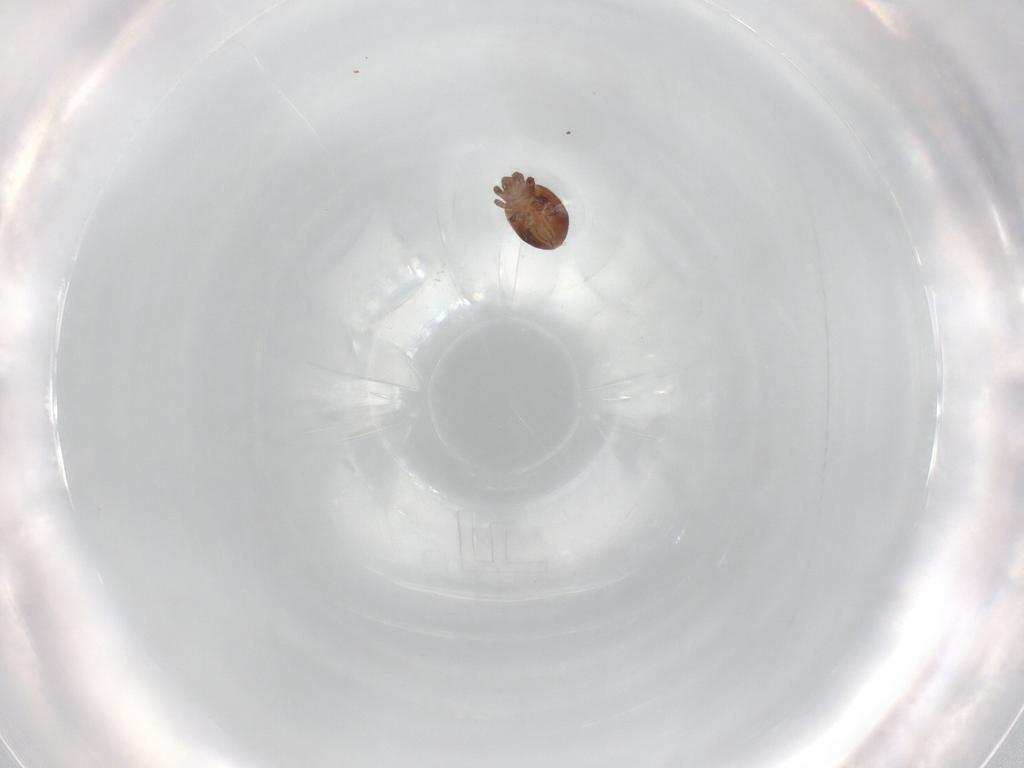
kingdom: Animalia
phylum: Arthropoda
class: Arachnida
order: Sarcoptiformes
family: Trhypochthoniidae
